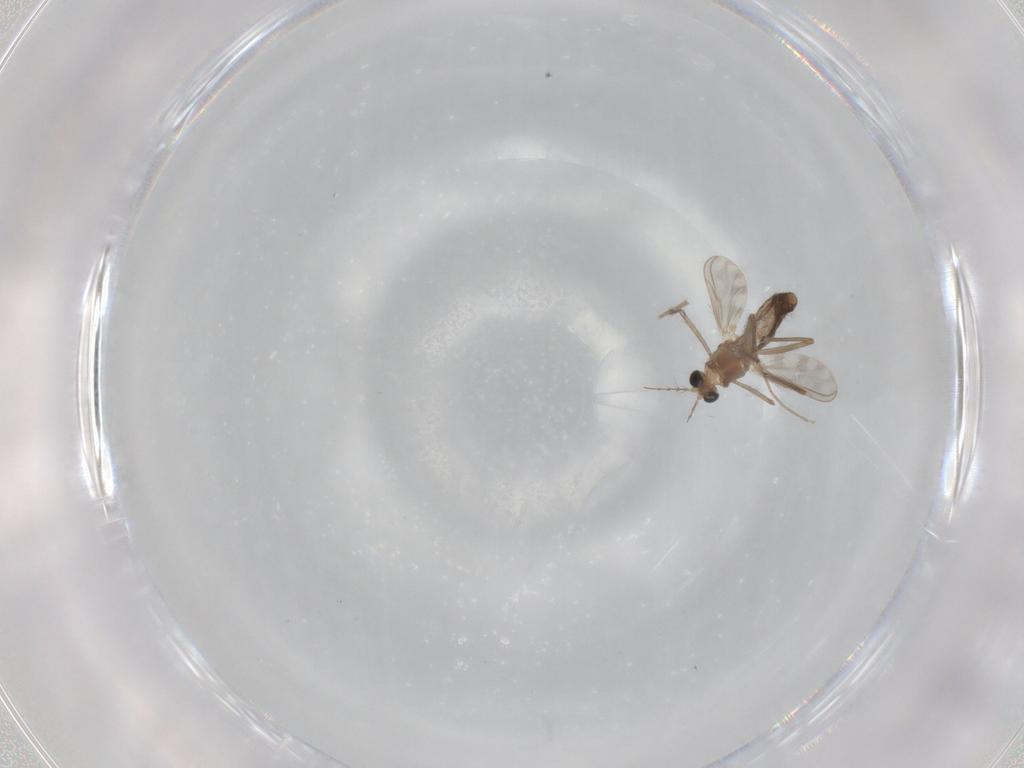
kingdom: Animalia
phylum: Arthropoda
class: Insecta
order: Diptera
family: Chironomidae
